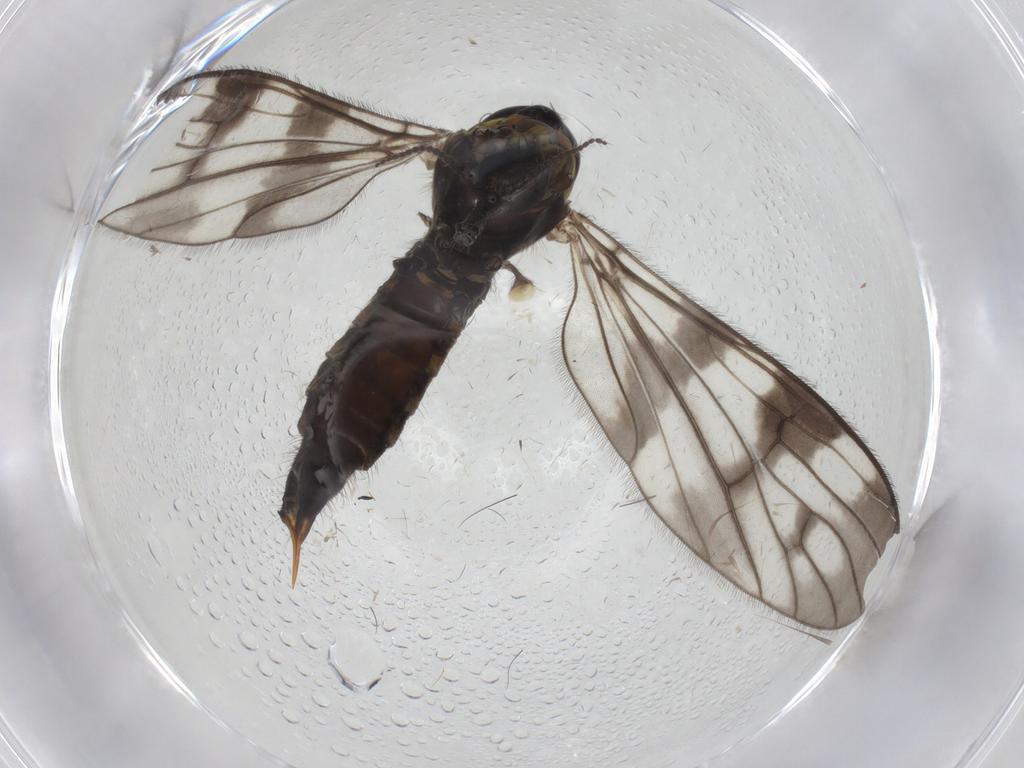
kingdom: Animalia
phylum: Arthropoda
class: Insecta
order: Diptera
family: Limoniidae
